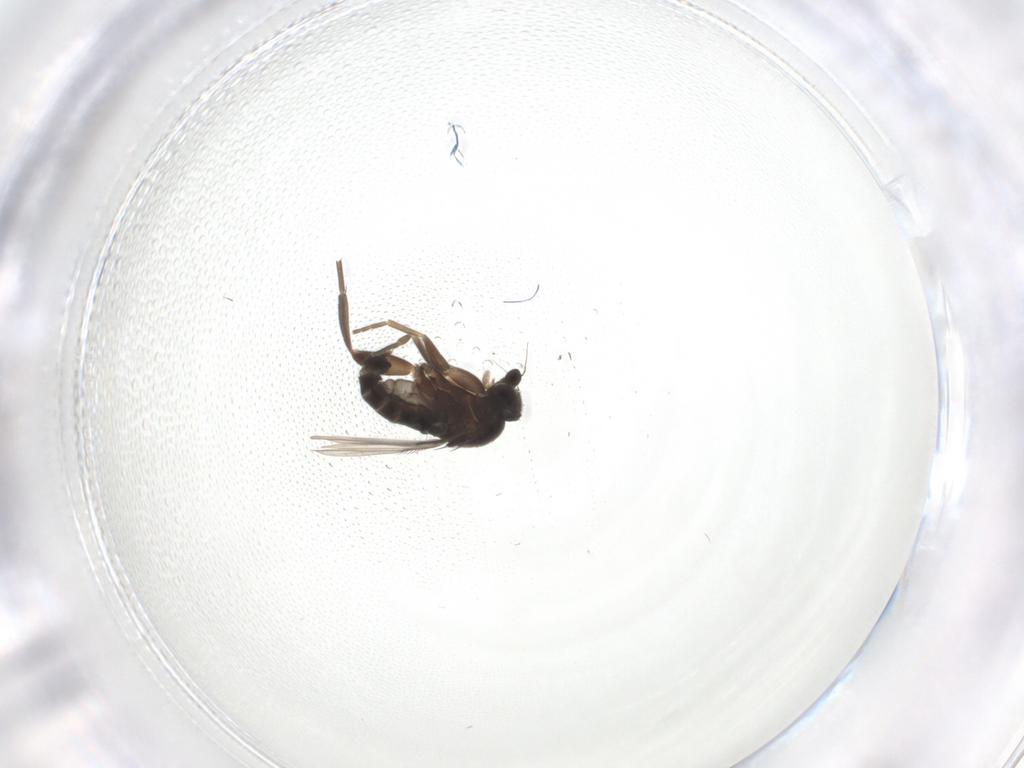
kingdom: Animalia
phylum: Arthropoda
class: Insecta
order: Diptera
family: Phoridae
